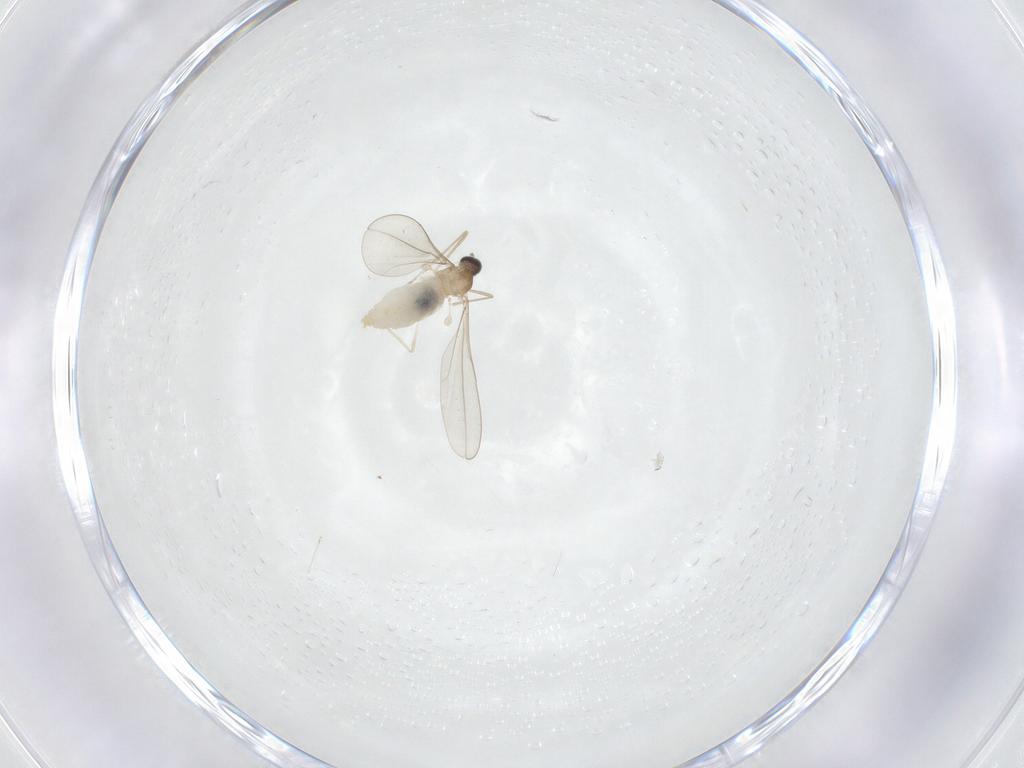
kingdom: Animalia
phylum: Arthropoda
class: Insecta
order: Diptera
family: Cecidomyiidae
